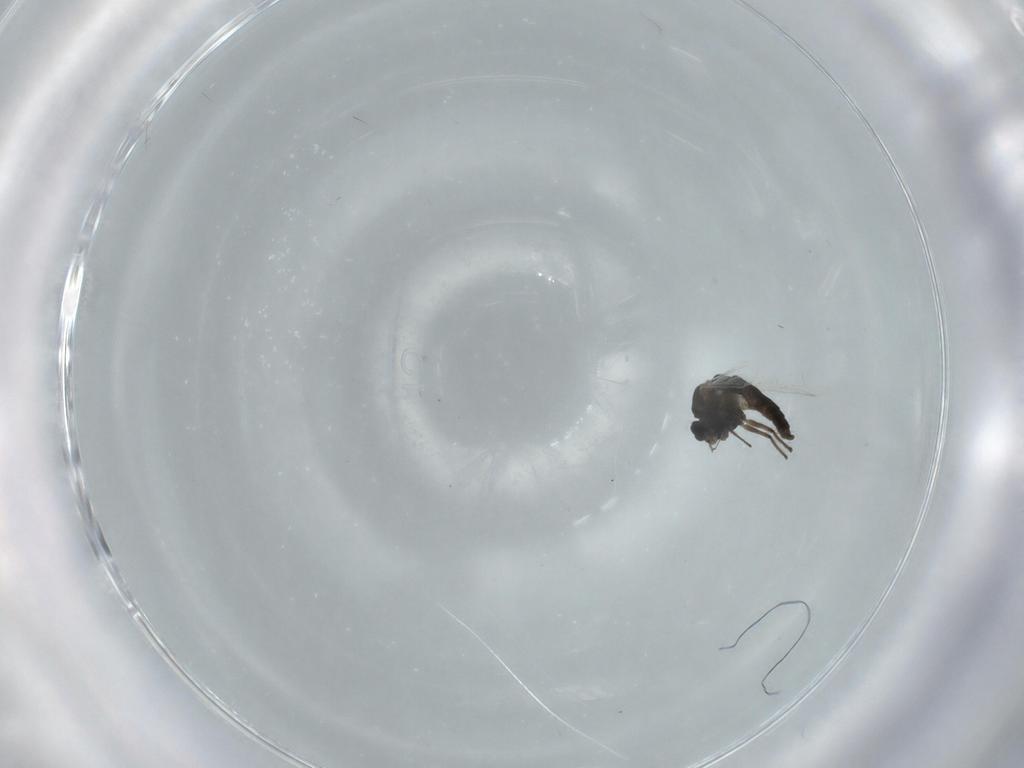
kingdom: Animalia
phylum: Arthropoda
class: Insecta
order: Diptera
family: Chironomidae
